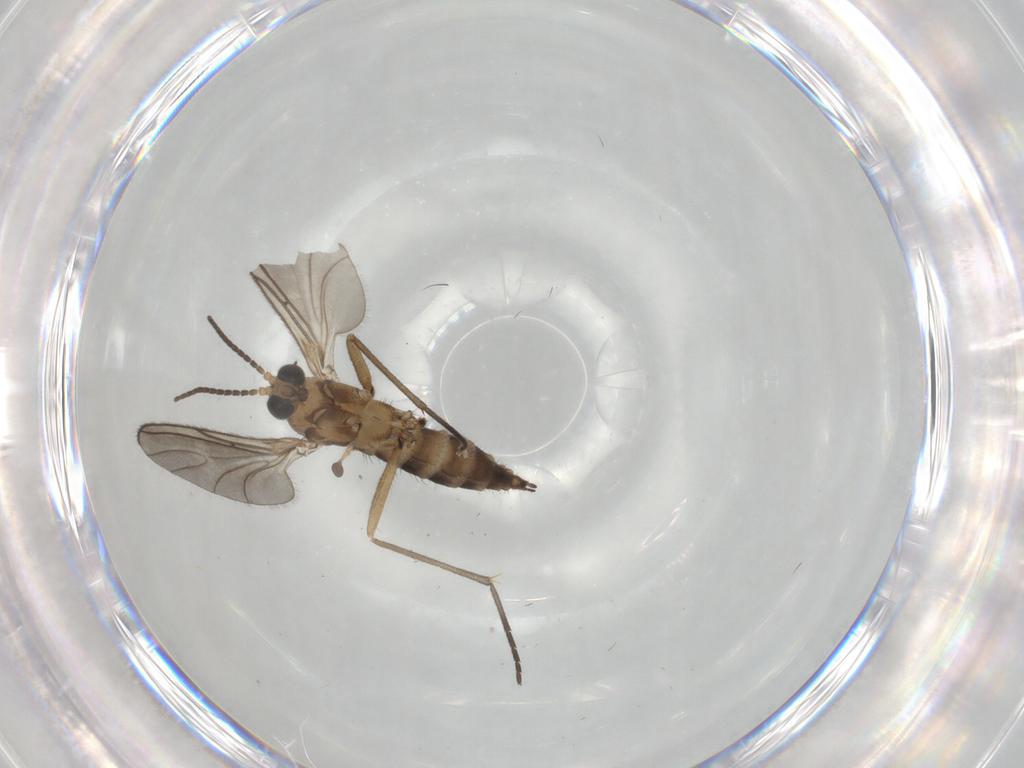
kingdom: Animalia
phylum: Arthropoda
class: Insecta
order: Diptera
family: Sciaridae
